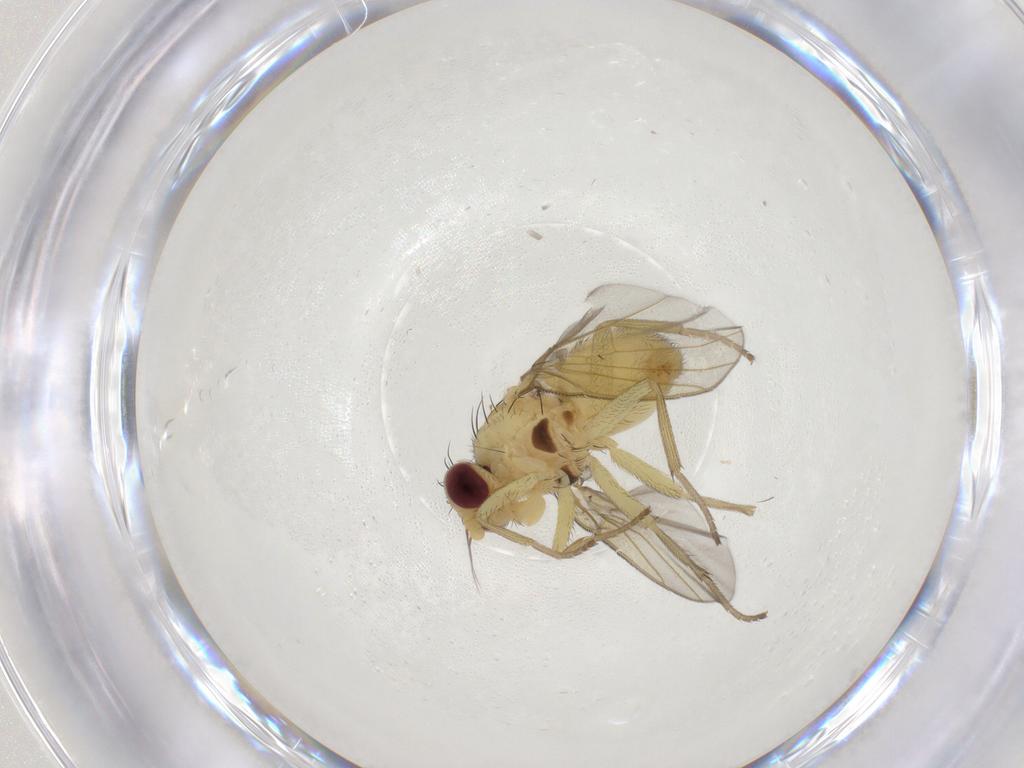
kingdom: Animalia
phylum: Arthropoda
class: Insecta
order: Diptera
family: Agromyzidae
